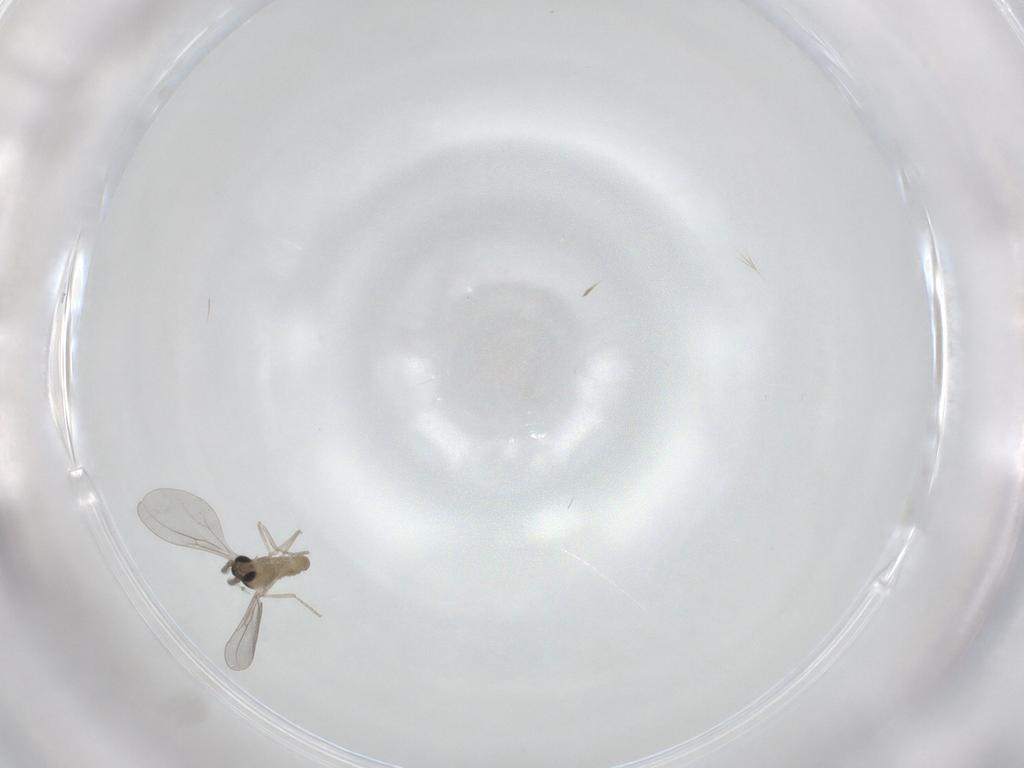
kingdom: Animalia
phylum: Arthropoda
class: Insecta
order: Diptera
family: Cecidomyiidae
